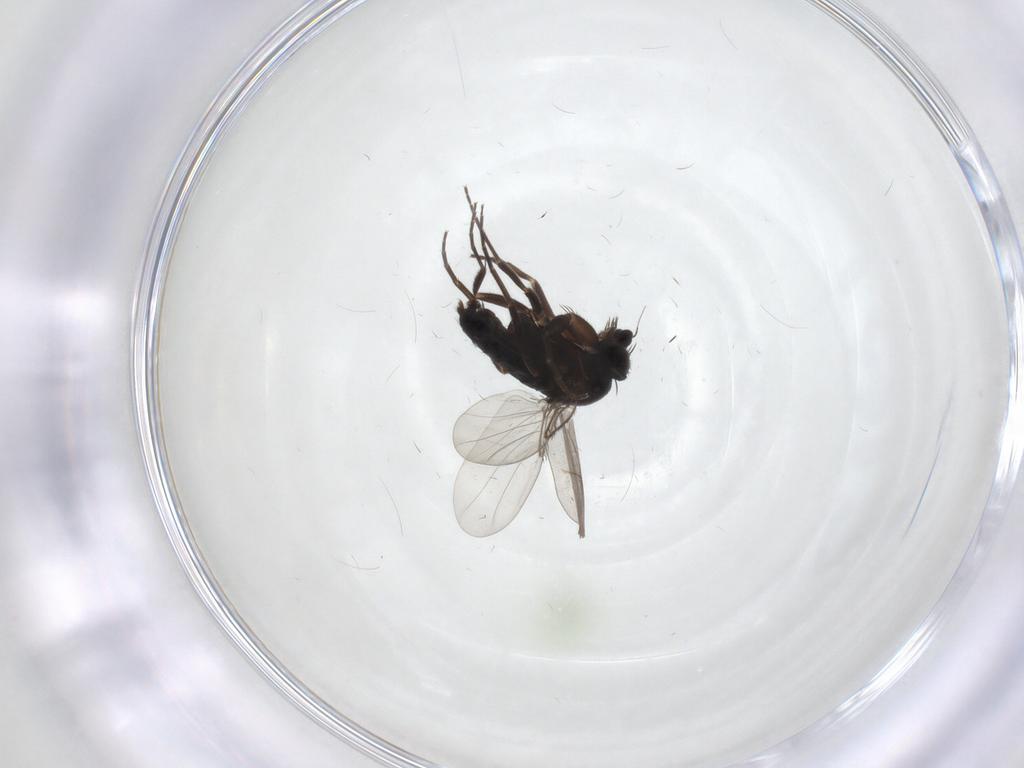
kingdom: Animalia
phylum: Arthropoda
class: Insecta
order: Diptera
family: Phoridae
